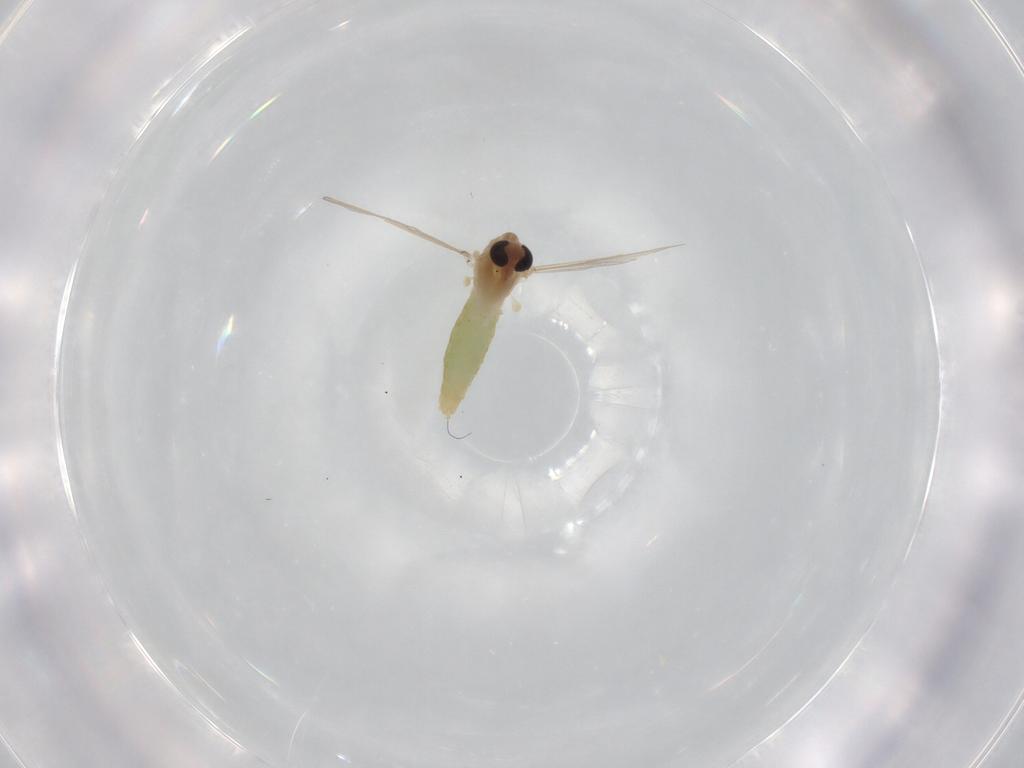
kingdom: Animalia
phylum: Arthropoda
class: Insecta
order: Diptera
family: Chironomidae
